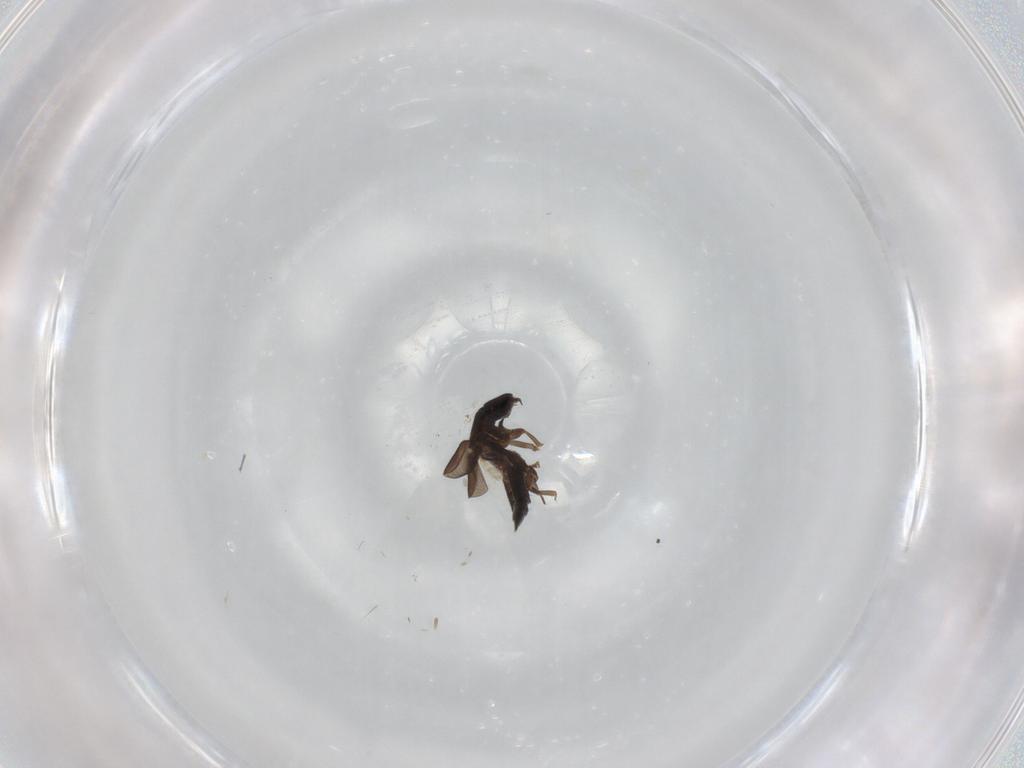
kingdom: Animalia
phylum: Arthropoda
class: Insecta
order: Coleoptera
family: Staphylinidae
